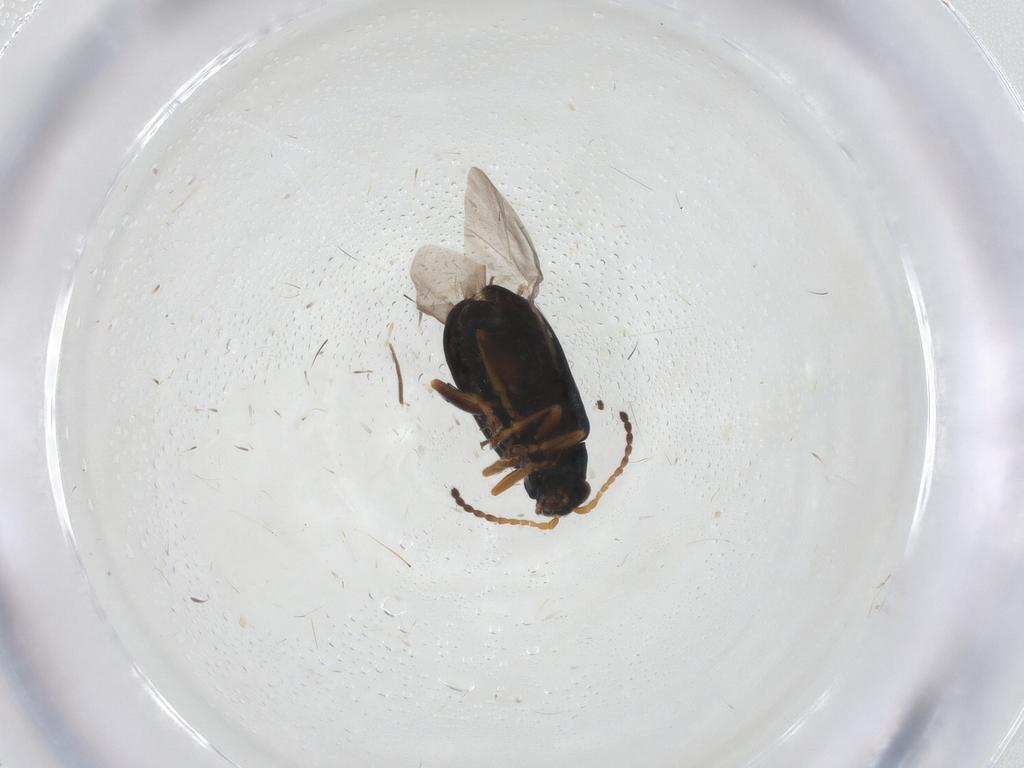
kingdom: Animalia
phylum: Arthropoda
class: Insecta
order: Coleoptera
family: Chrysomelidae
